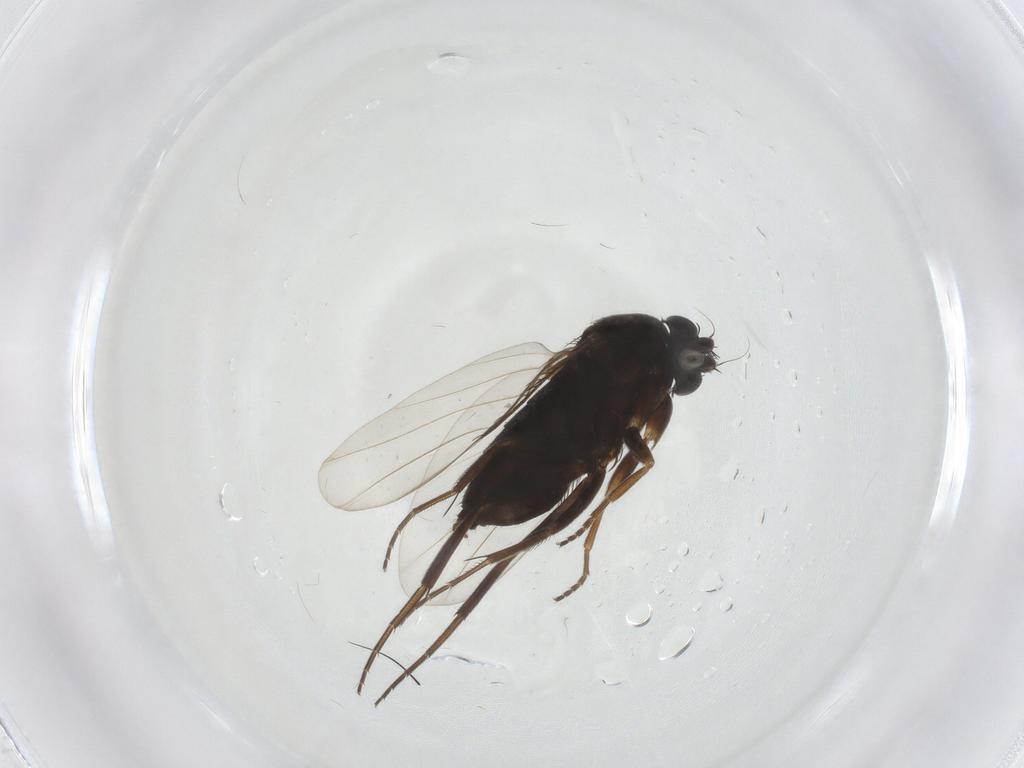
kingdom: Animalia
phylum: Arthropoda
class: Insecta
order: Diptera
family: Phoridae
